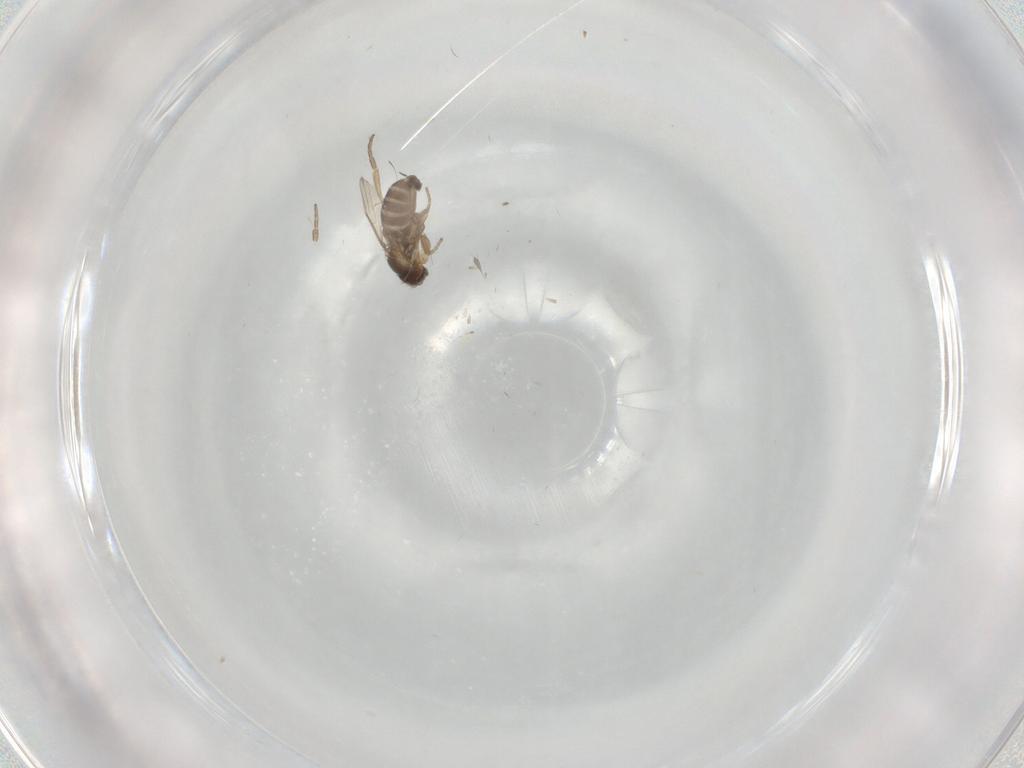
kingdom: Animalia
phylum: Arthropoda
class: Insecta
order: Diptera
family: Phoridae
